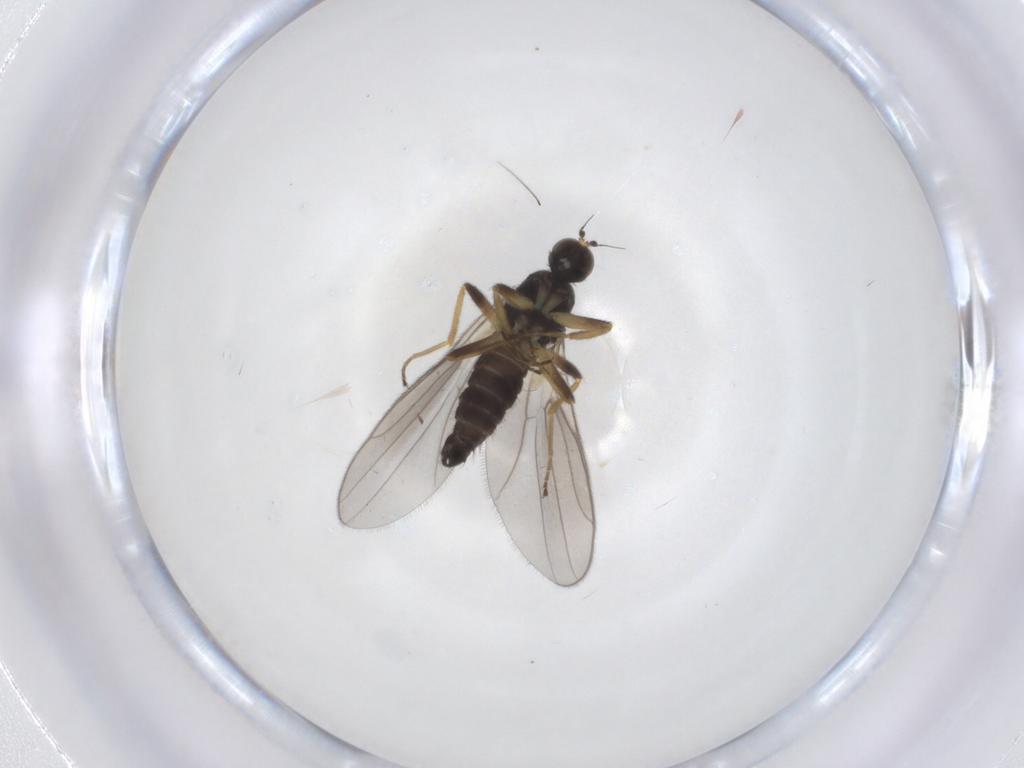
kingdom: Animalia
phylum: Arthropoda
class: Insecta
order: Diptera
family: Hybotidae
